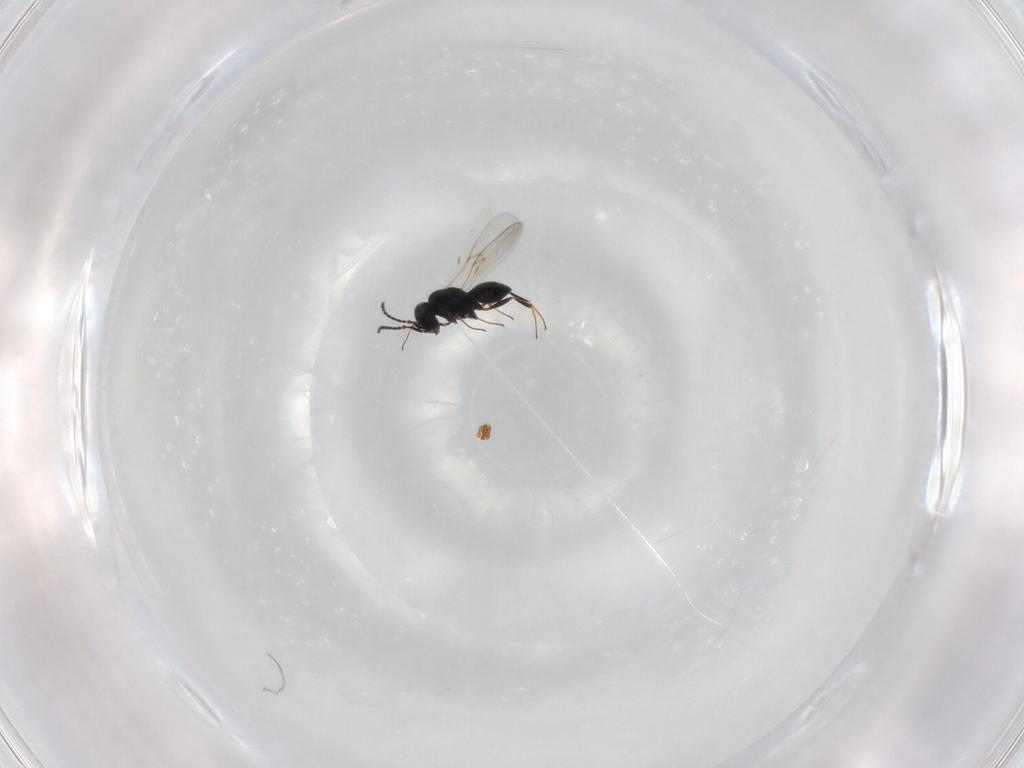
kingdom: Animalia
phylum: Arthropoda
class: Insecta
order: Hymenoptera
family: Scelionidae
